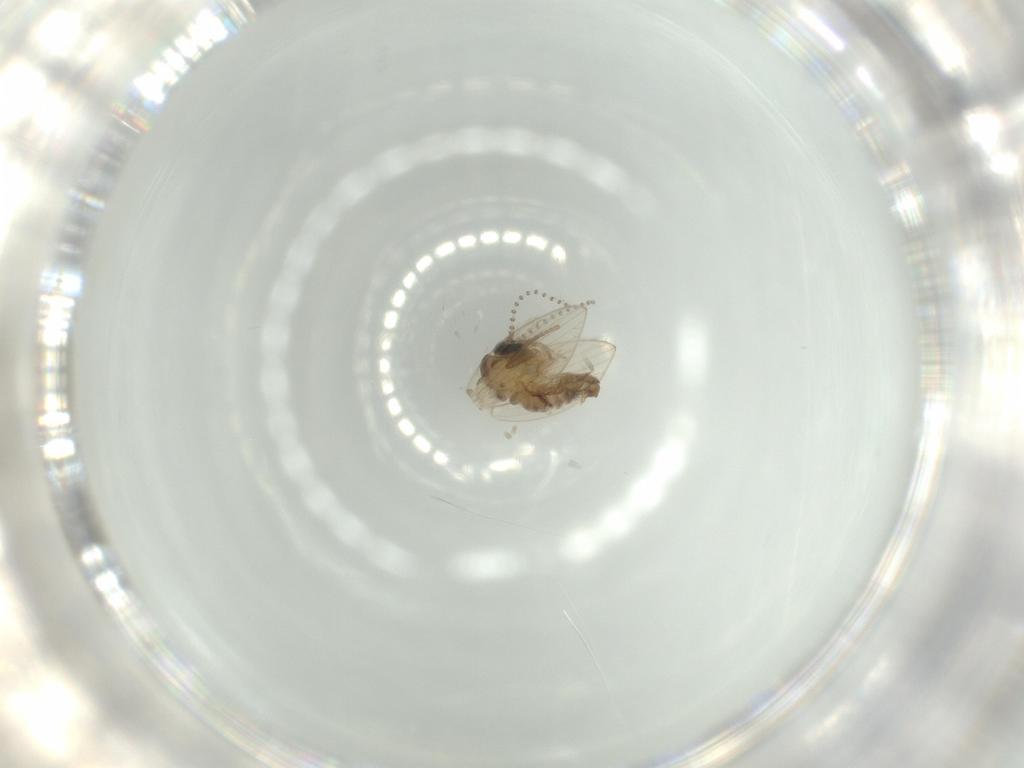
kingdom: Animalia
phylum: Arthropoda
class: Insecta
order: Diptera
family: Psychodidae
